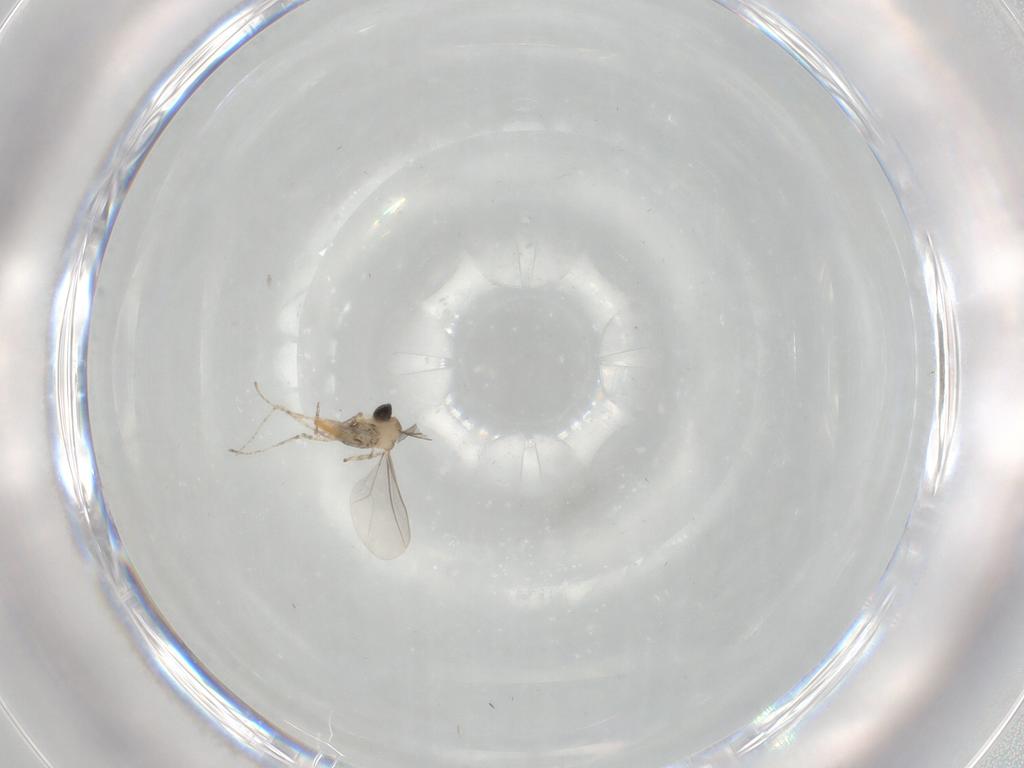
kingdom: Animalia
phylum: Arthropoda
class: Insecta
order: Diptera
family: Cecidomyiidae
